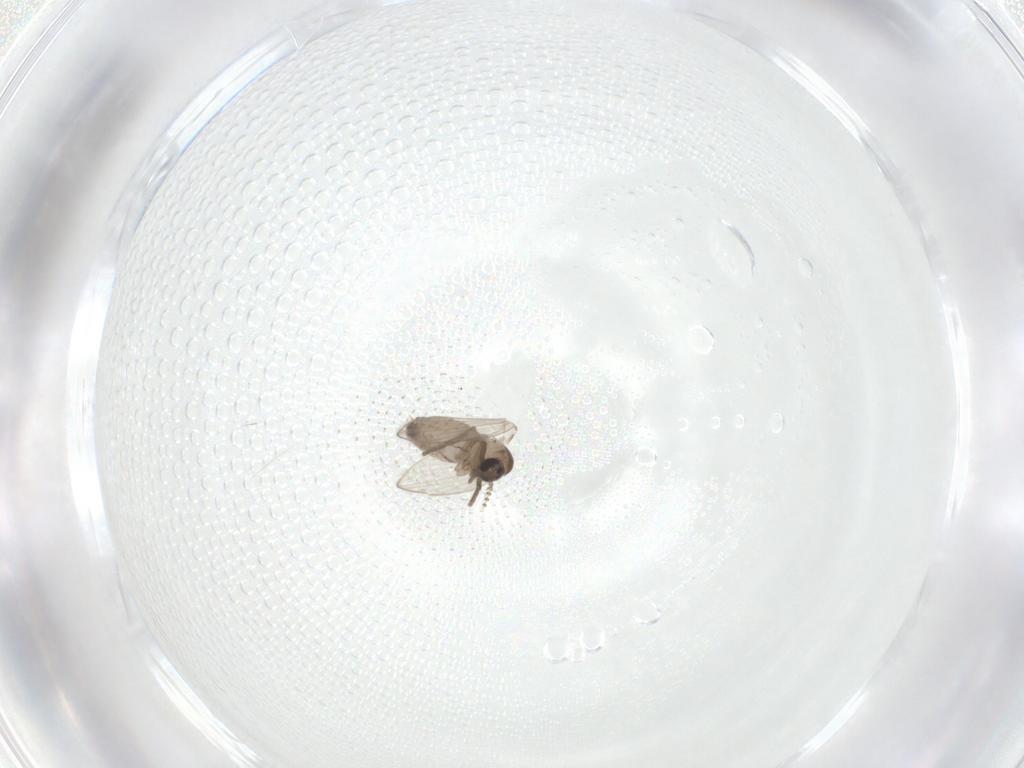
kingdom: Animalia
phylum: Arthropoda
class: Insecta
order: Diptera
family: Psychodidae
